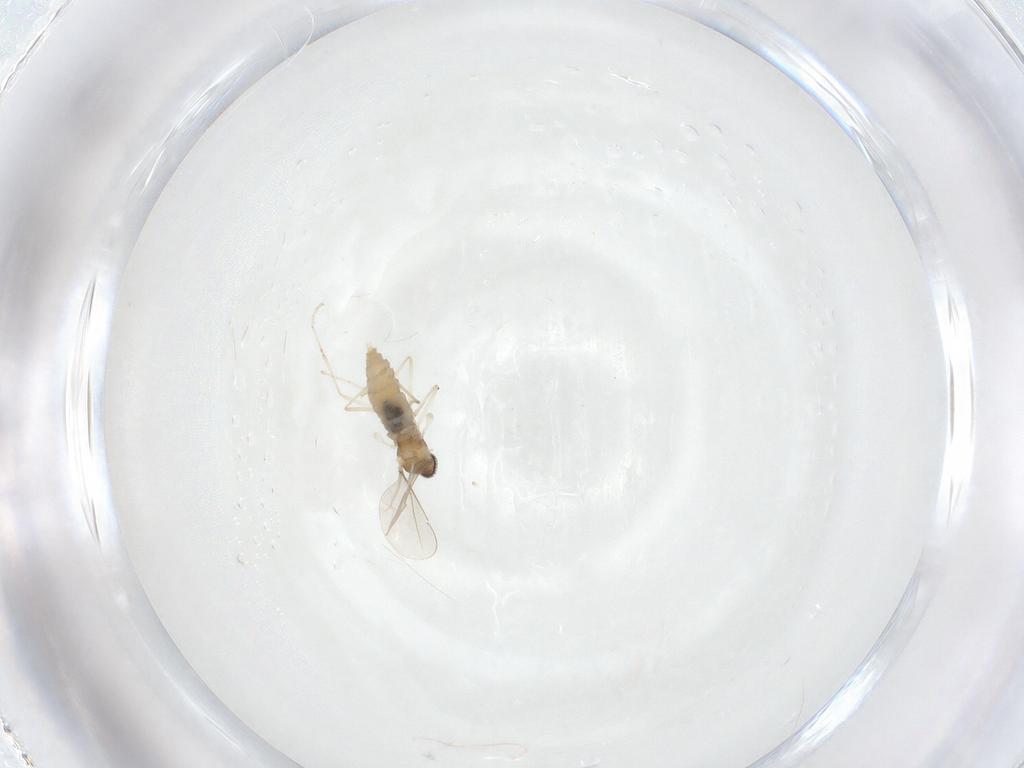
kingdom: Animalia
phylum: Arthropoda
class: Insecta
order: Diptera
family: Cecidomyiidae
